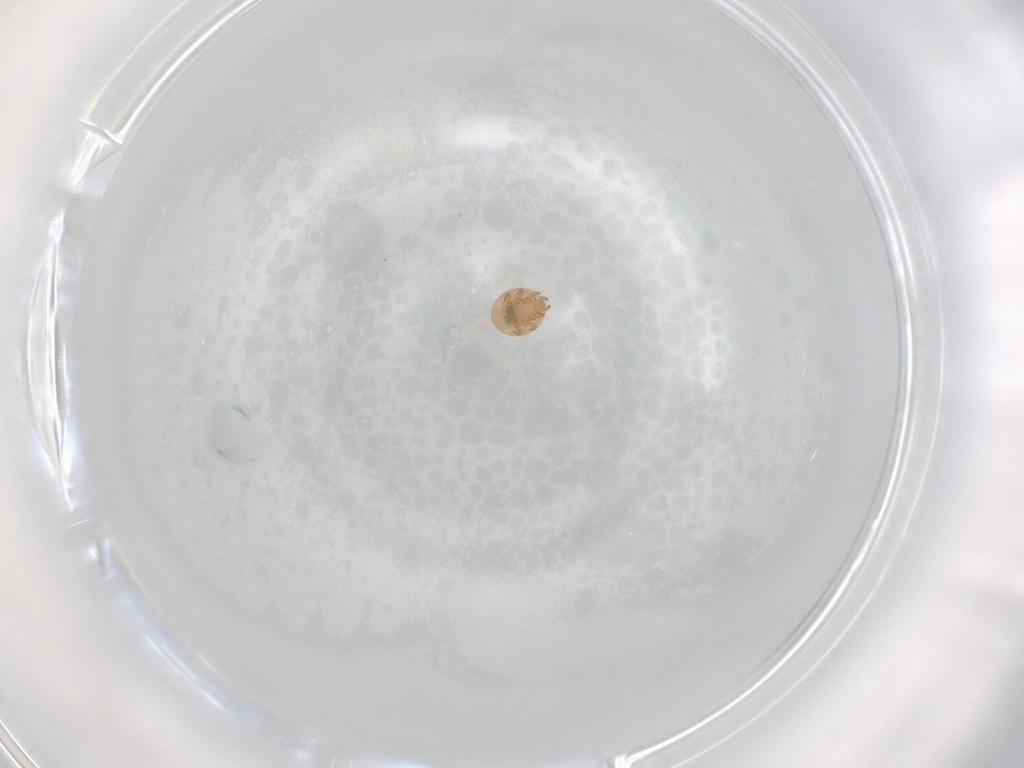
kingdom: Animalia
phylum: Arthropoda
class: Arachnida
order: Mesostigmata
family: Trematuridae
